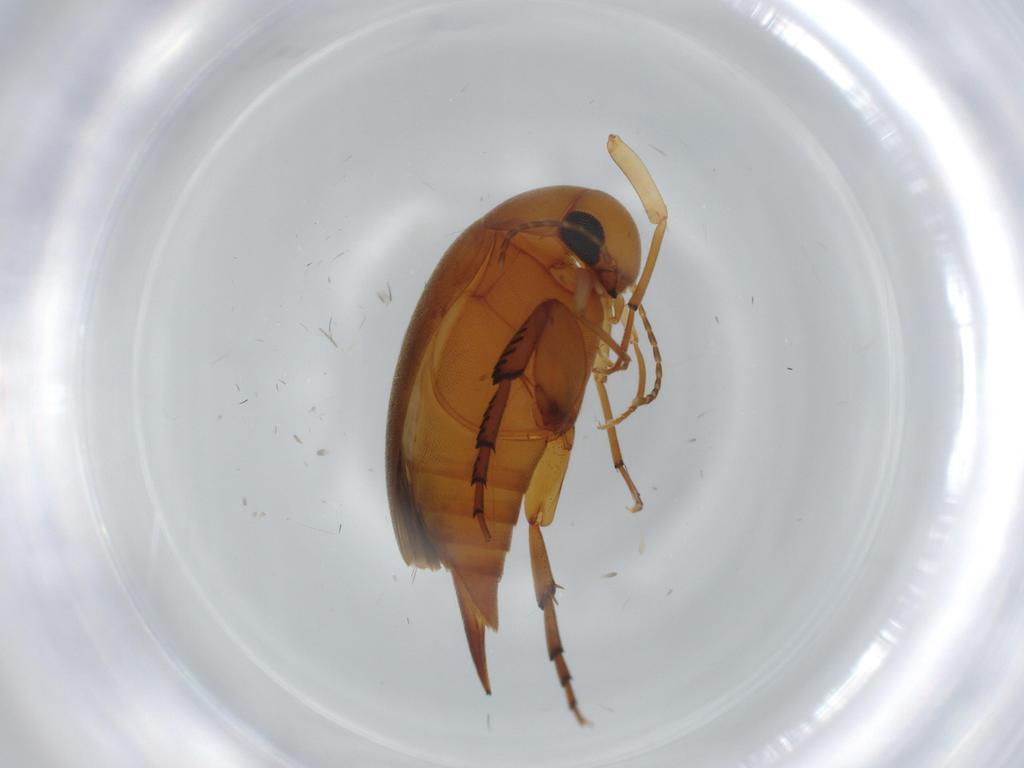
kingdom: Animalia
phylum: Arthropoda
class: Insecta
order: Coleoptera
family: Mordellidae
